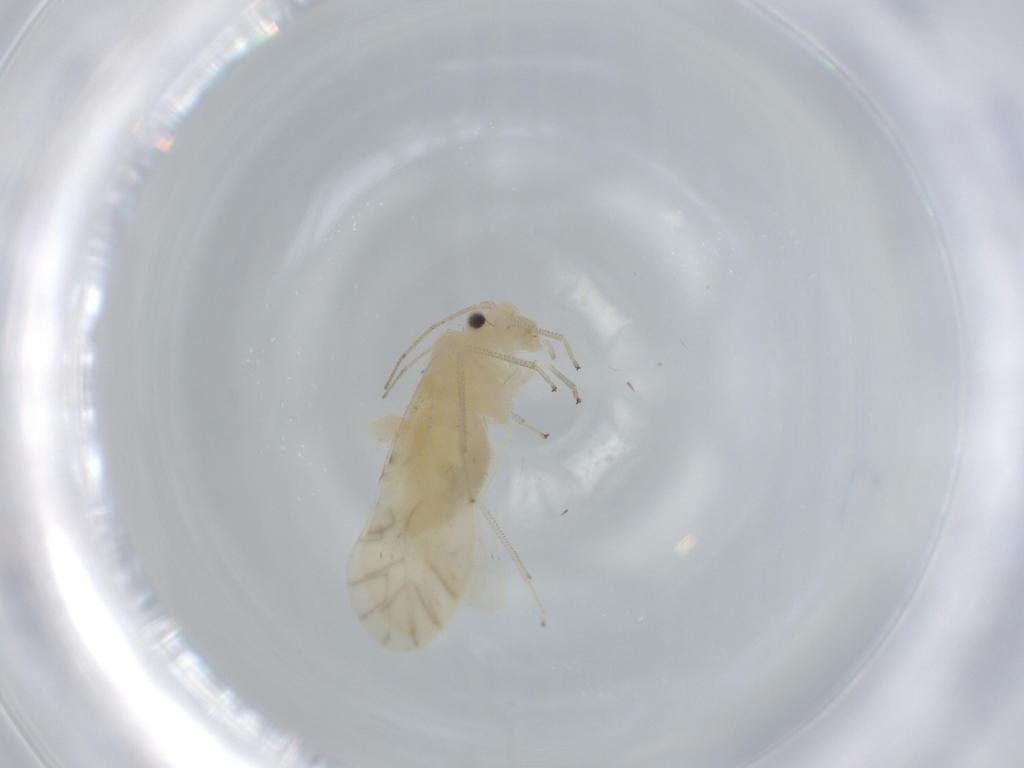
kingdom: Animalia
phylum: Arthropoda
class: Insecta
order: Psocodea
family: Caeciliusidae
